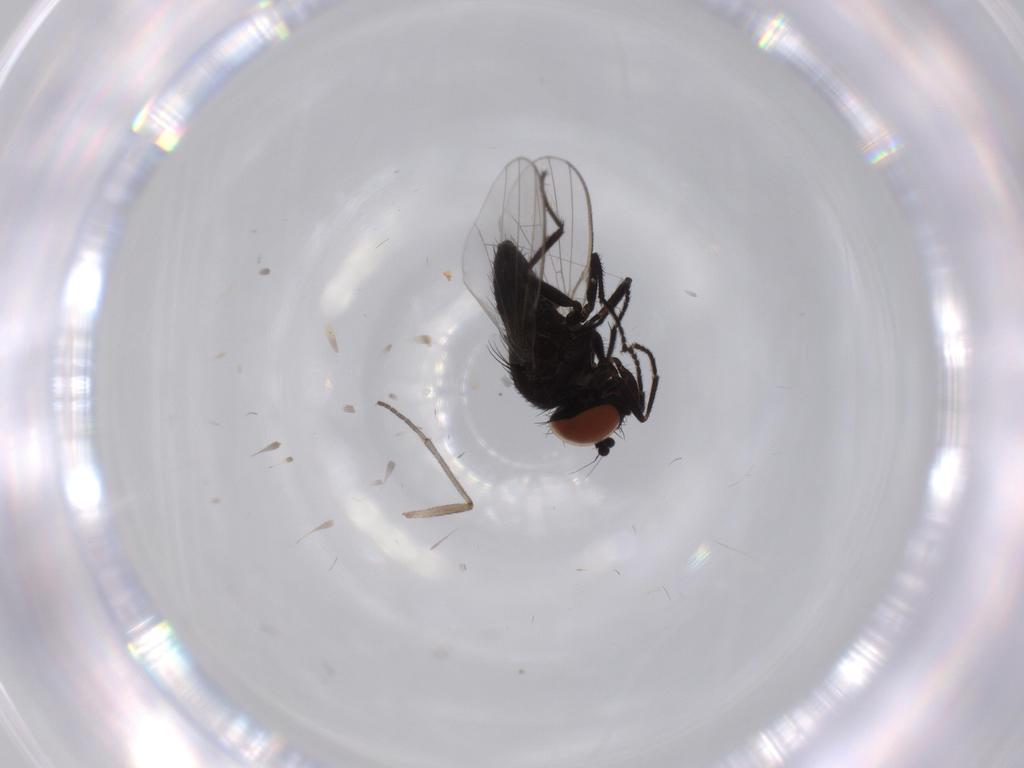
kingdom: Animalia
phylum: Arthropoda
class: Insecta
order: Diptera
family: Milichiidae
